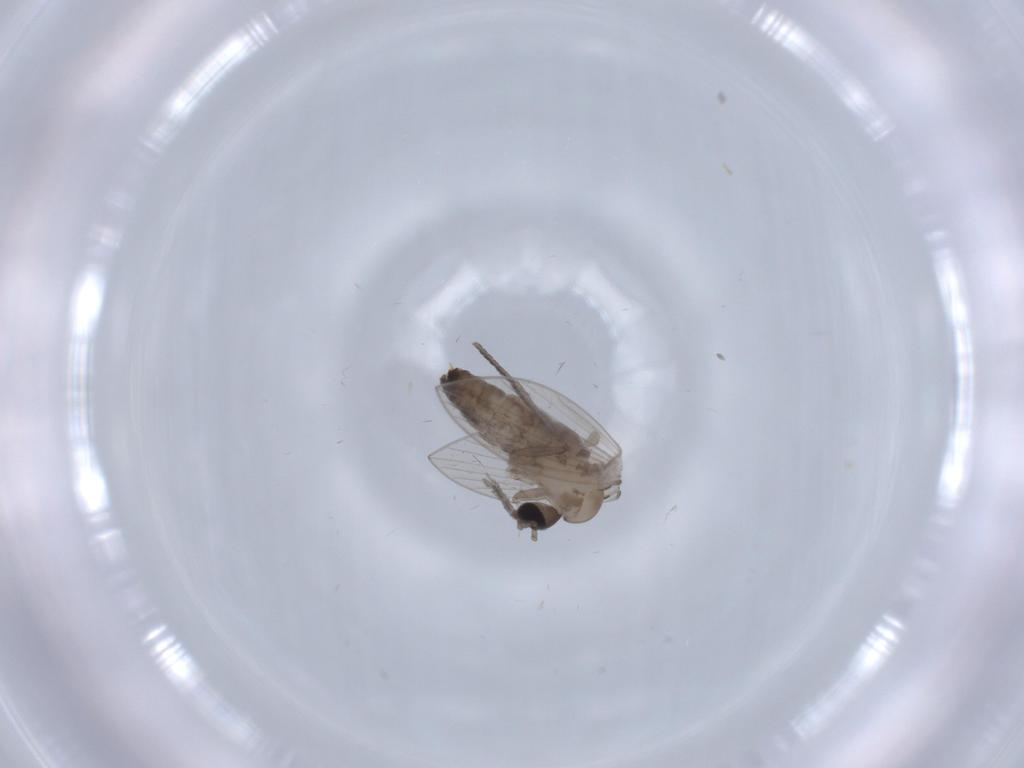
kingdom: Animalia
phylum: Arthropoda
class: Insecta
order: Diptera
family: Psychodidae
